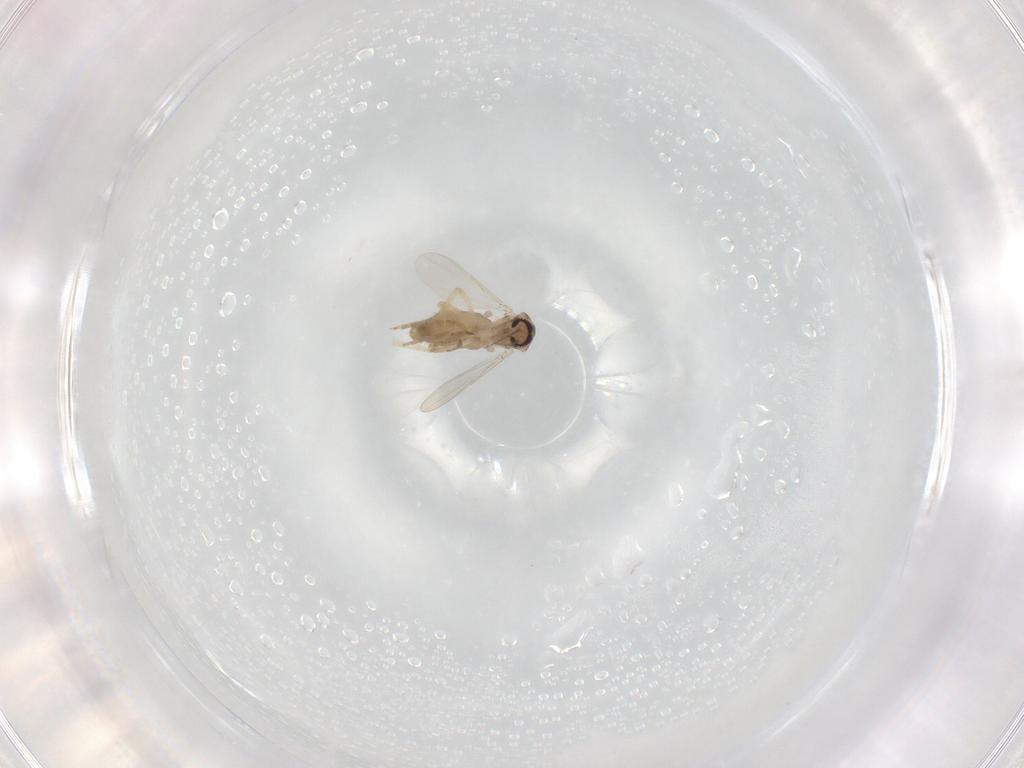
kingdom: Animalia
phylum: Arthropoda
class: Insecta
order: Diptera
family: Ceratopogonidae
